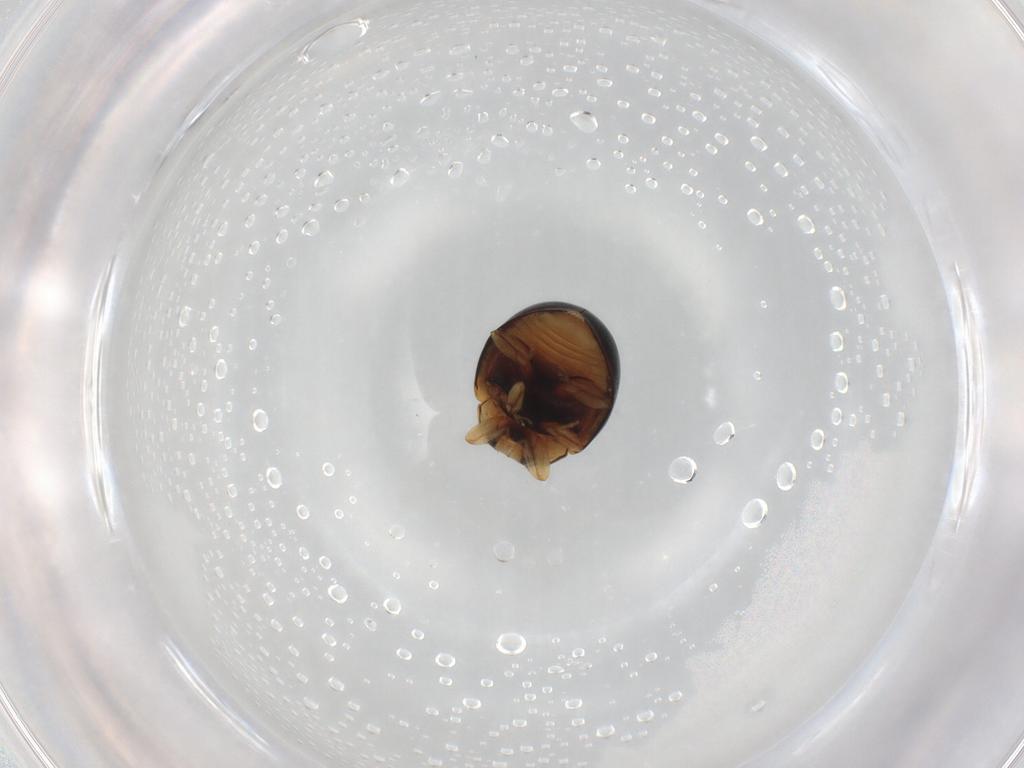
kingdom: Animalia
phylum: Arthropoda
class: Insecta
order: Coleoptera
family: Coccinellidae
